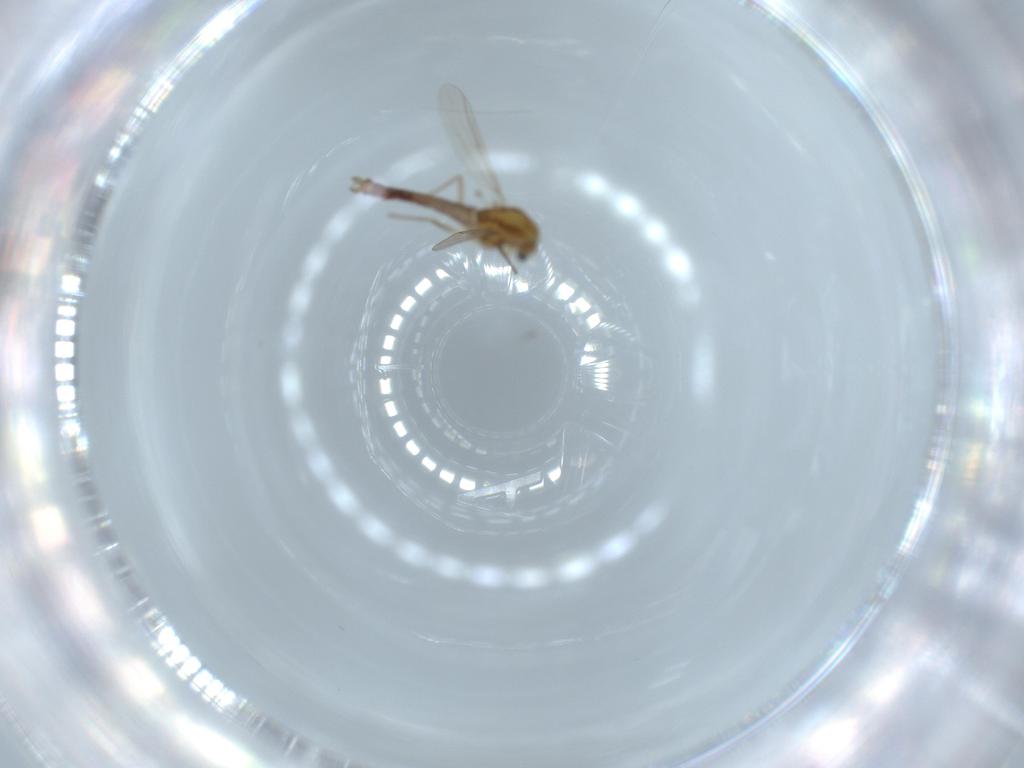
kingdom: Animalia
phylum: Arthropoda
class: Insecta
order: Diptera
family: Chironomidae
